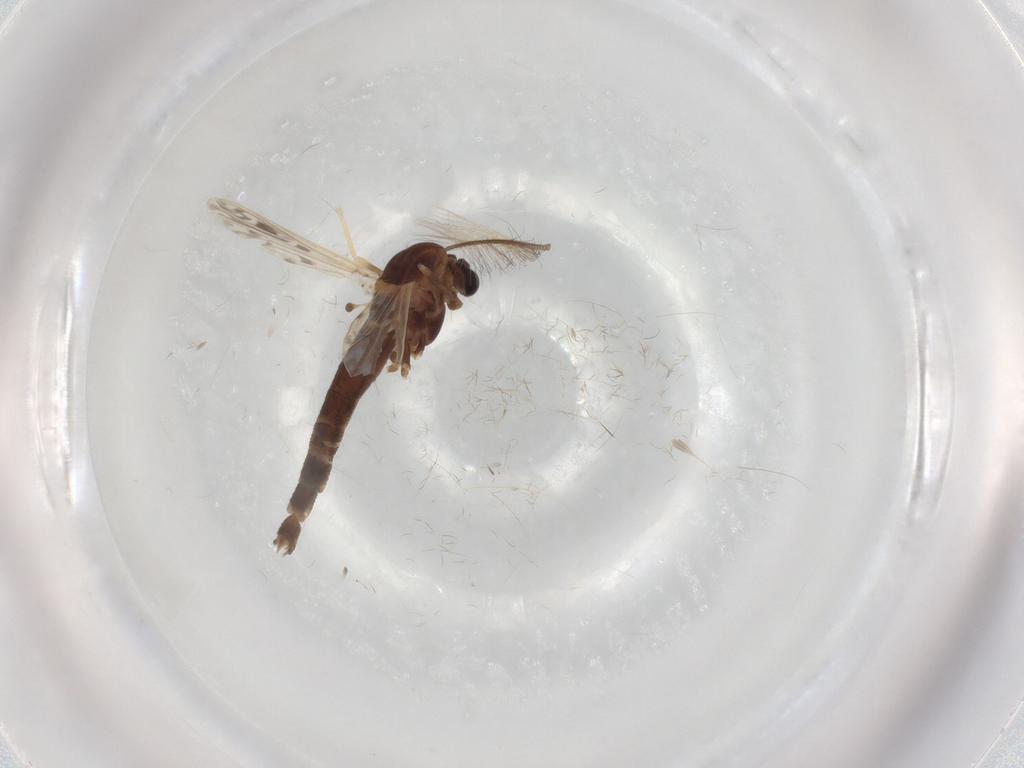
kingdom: Animalia
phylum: Arthropoda
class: Insecta
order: Diptera
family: Chironomidae
